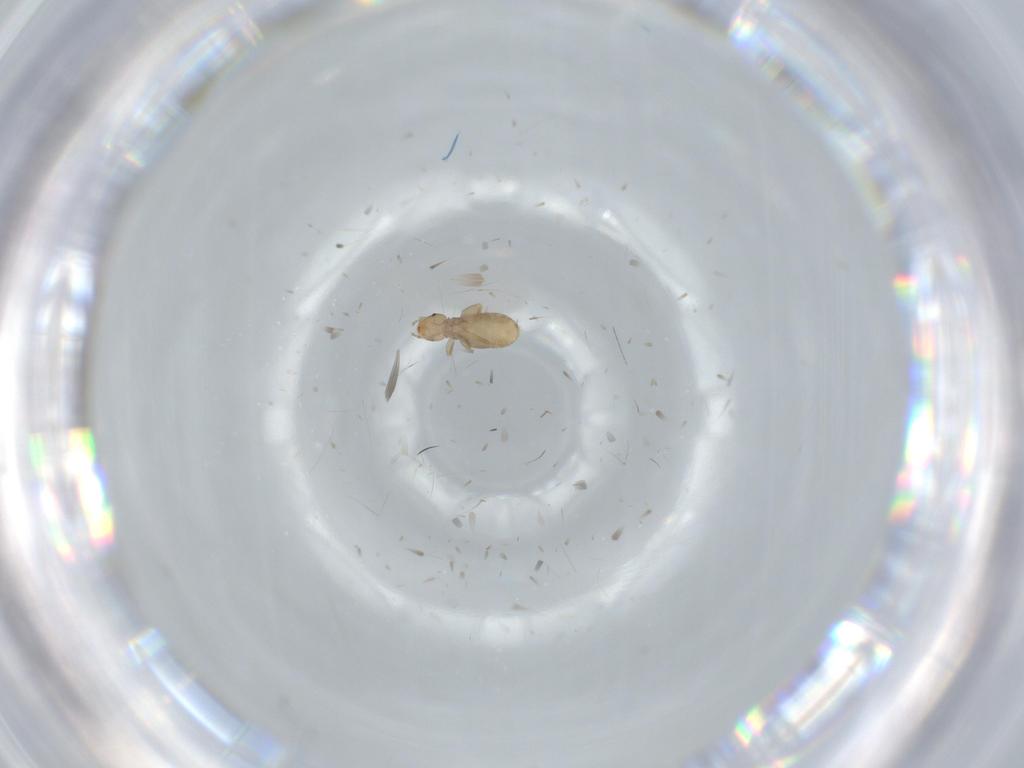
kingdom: Animalia
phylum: Arthropoda
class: Insecta
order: Psocodea
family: Liposcelididae
